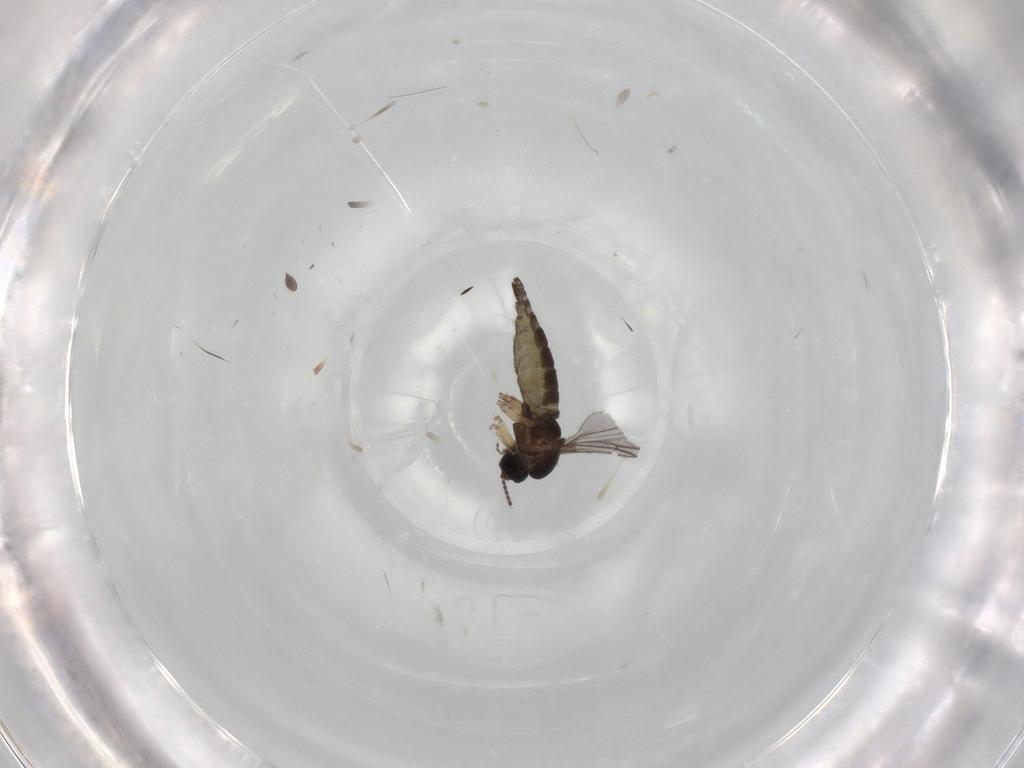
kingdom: Animalia
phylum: Arthropoda
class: Insecta
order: Diptera
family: Sciaridae
